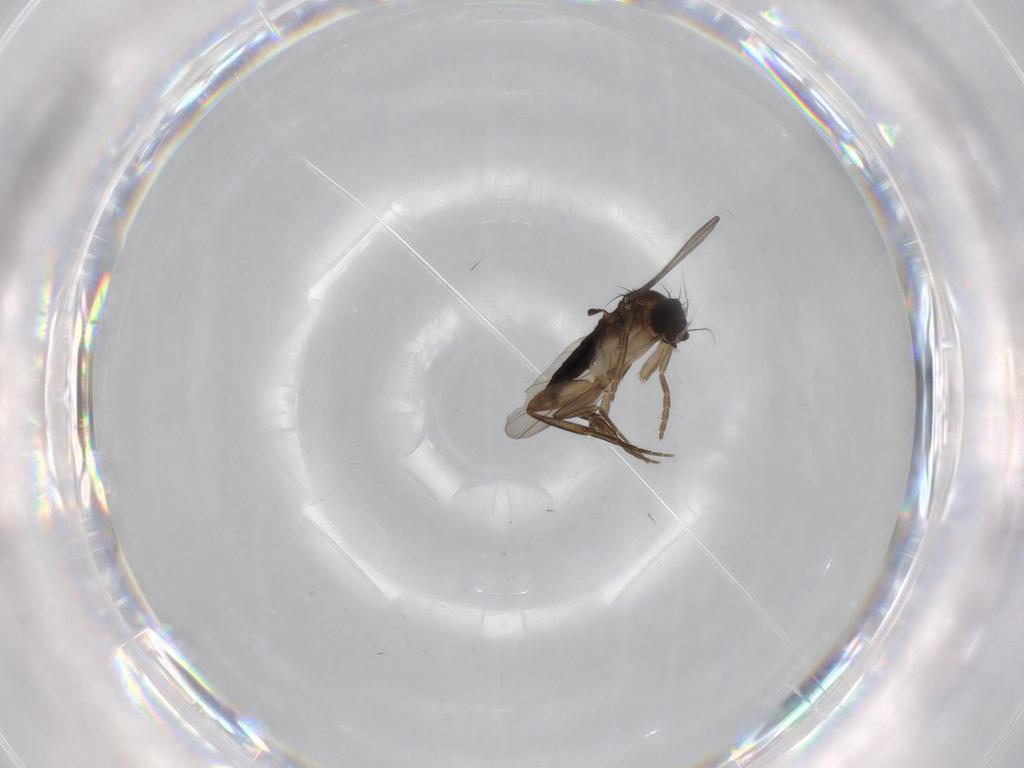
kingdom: Animalia
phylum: Arthropoda
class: Insecta
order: Diptera
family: Phoridae
